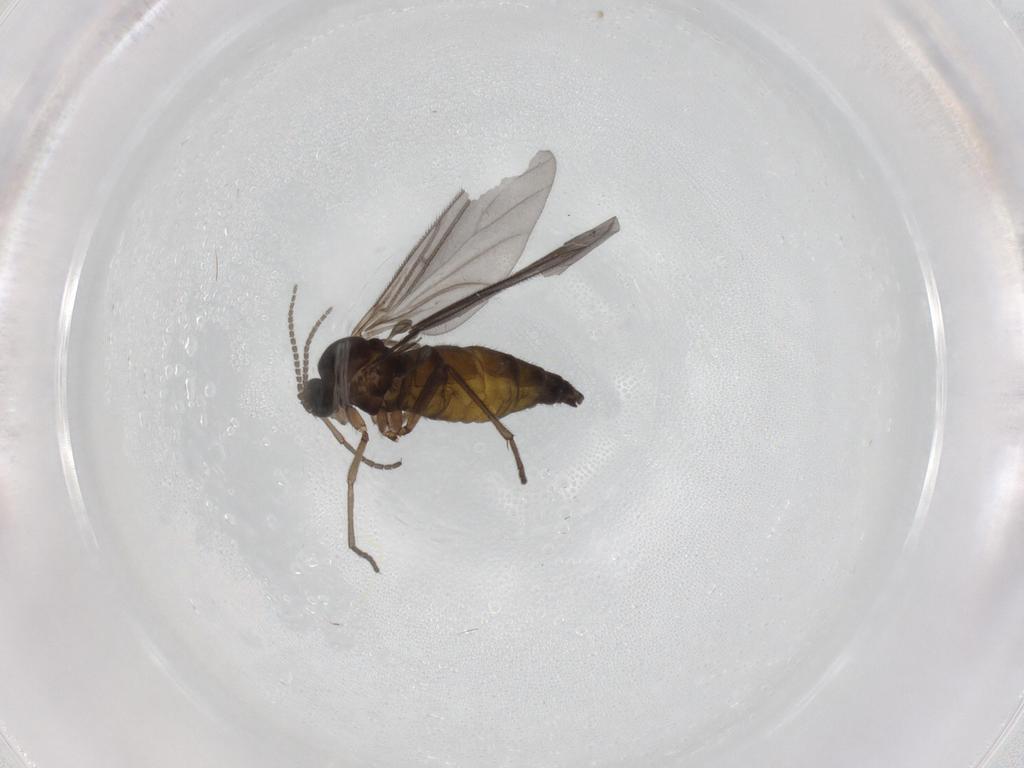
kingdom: Animalia
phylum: Arthropoda
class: Insecta
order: Diptera
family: Sciaridae
